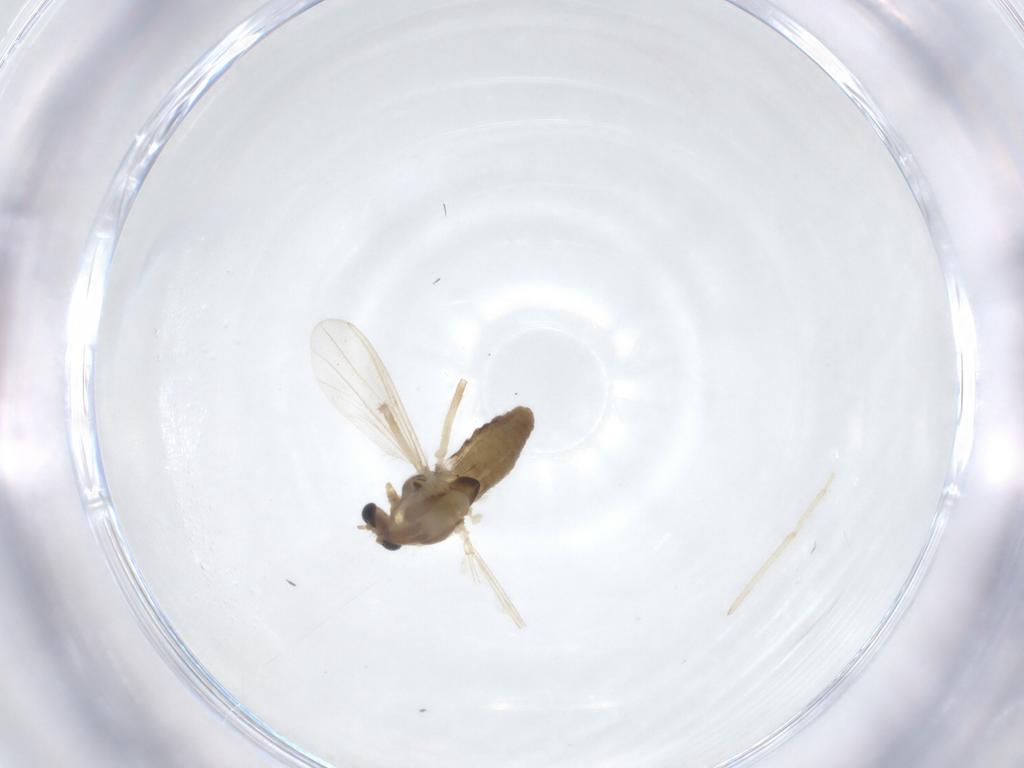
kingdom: Animalia
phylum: Arthropoda
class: Insecta
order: Diptera
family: Chironomidae
